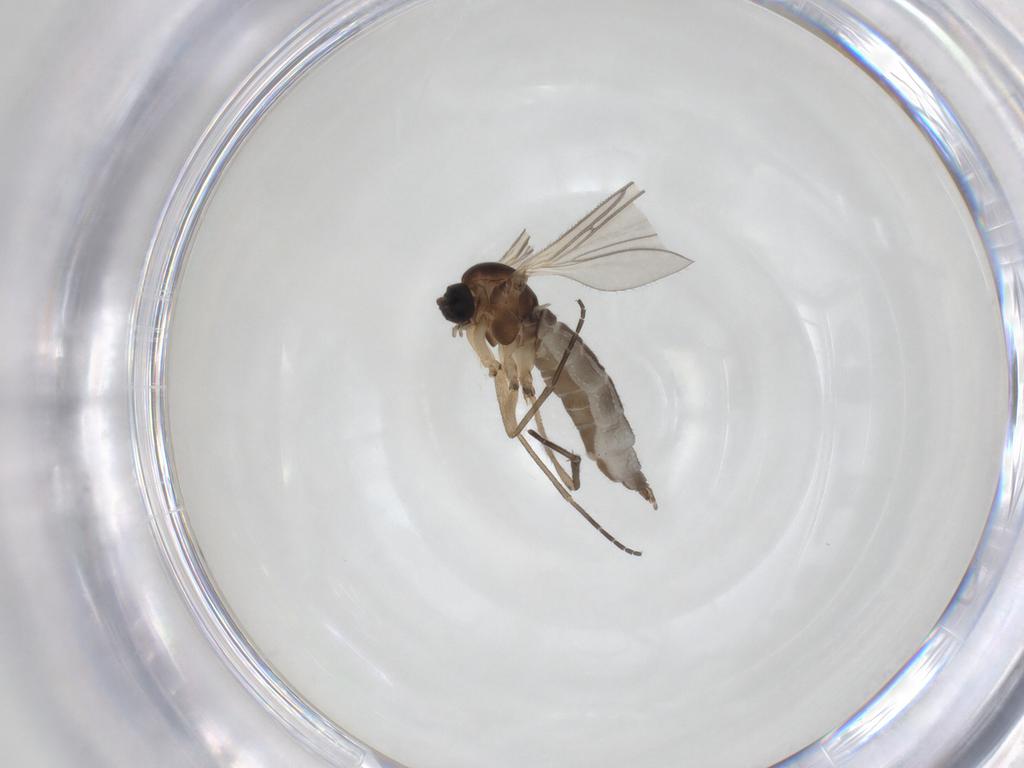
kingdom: Animalia
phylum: Arthropoda
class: Insecta
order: Diptera
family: Sciaridae
